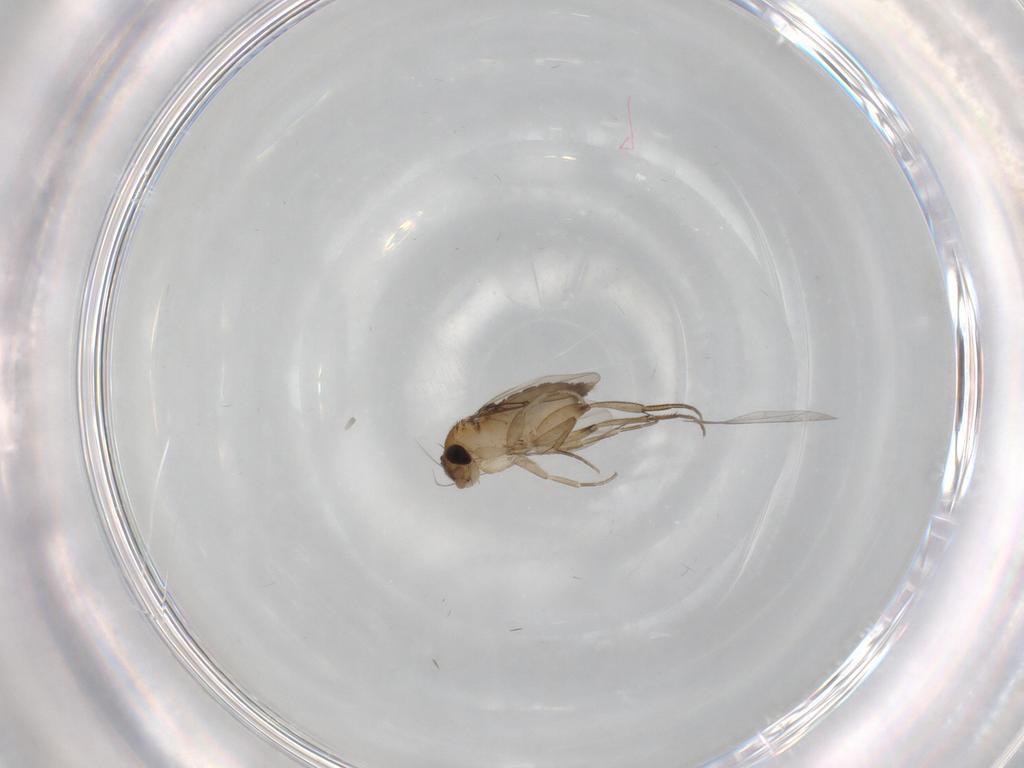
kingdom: Animalia
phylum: Arthropoda
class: Insecta
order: Diptera
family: Phoridae
